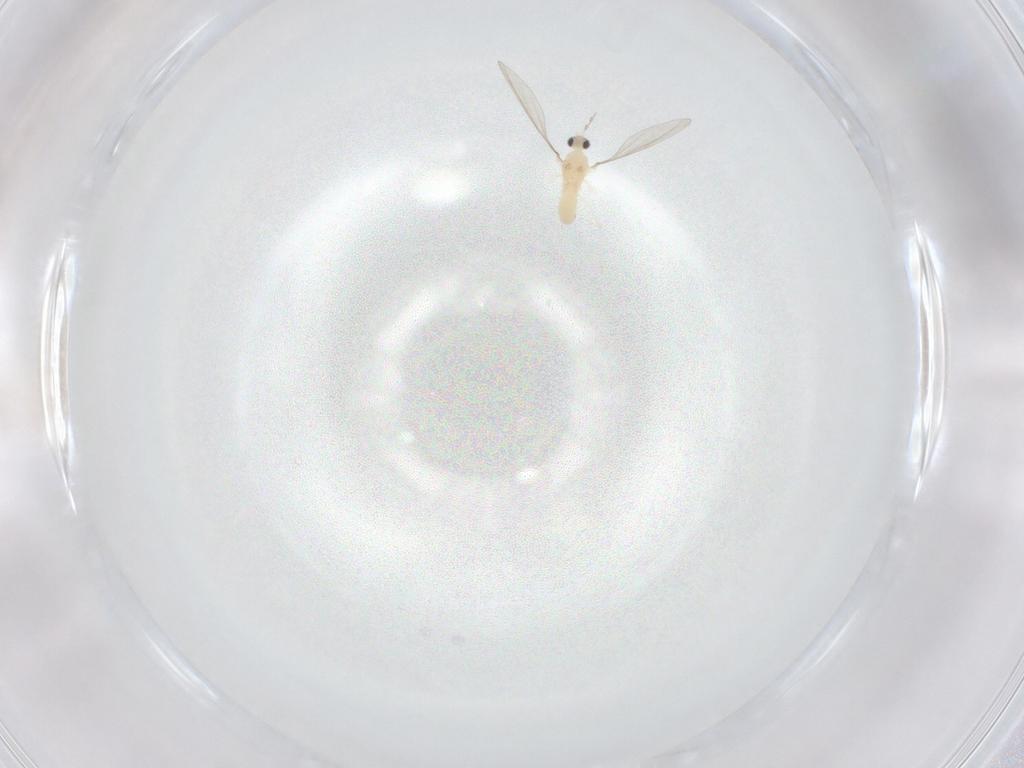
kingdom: Animalia
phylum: Arthropoda
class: Insecta
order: Diptera
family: Cecidomyiidae
